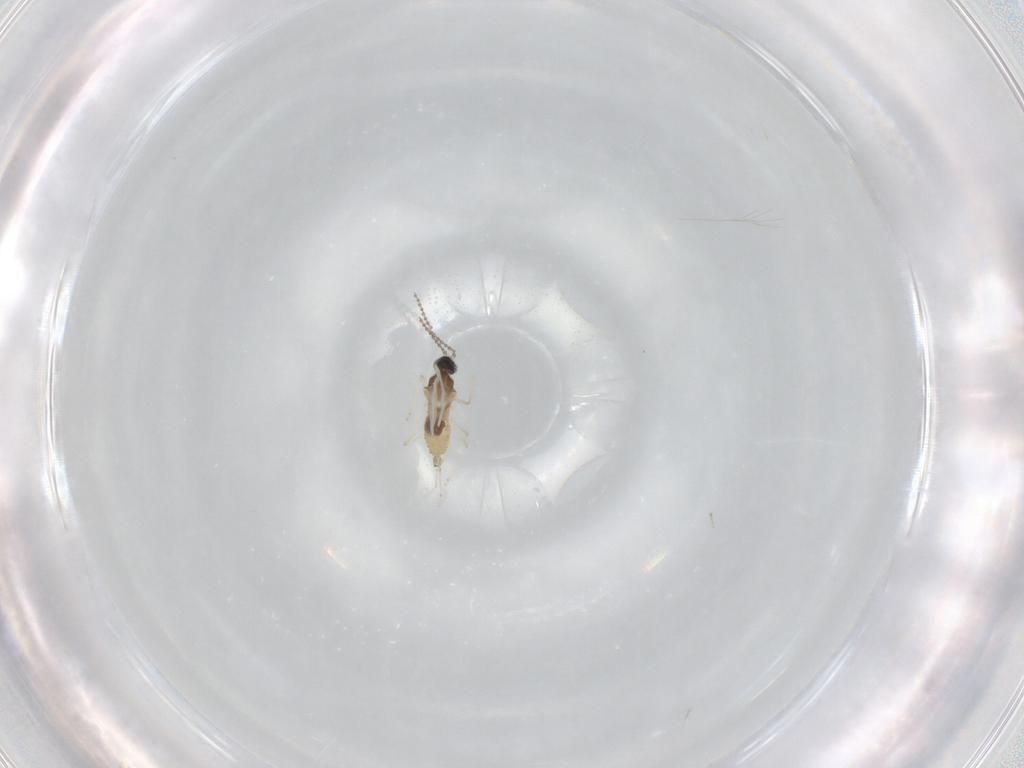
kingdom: Animalia
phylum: Arthropoda
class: Insecta
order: Diptera
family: Cecidomyiidae
